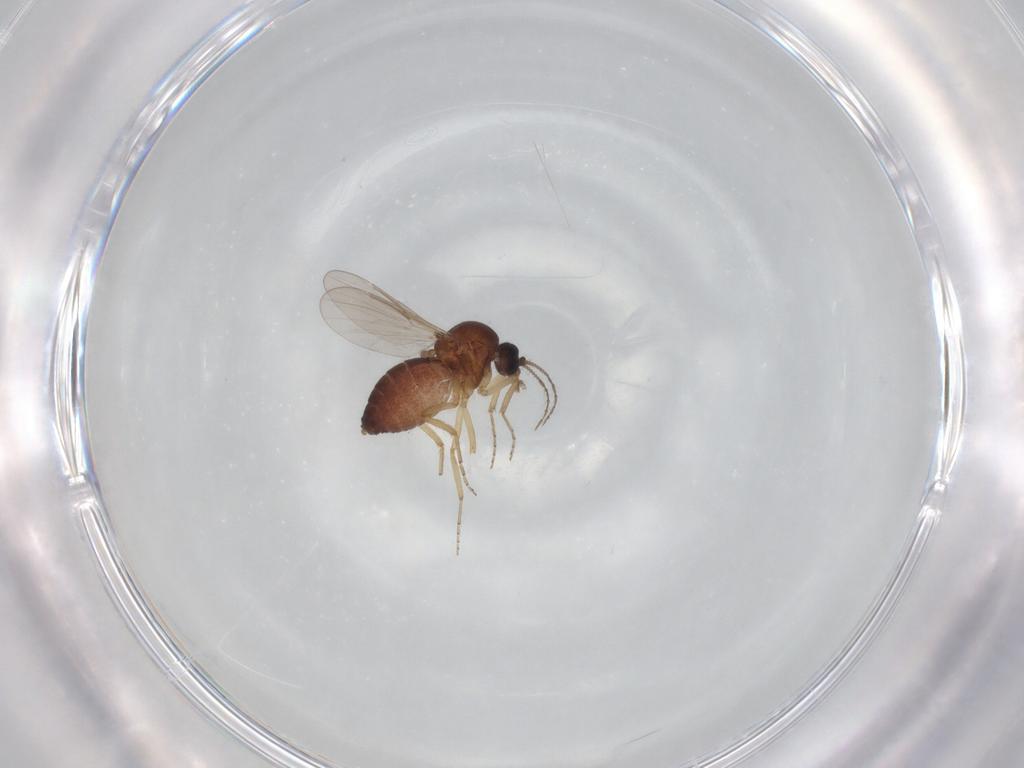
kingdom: Animalia
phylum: Arthropoda
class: Insecta
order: Diptera
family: Ceratopogonidae
